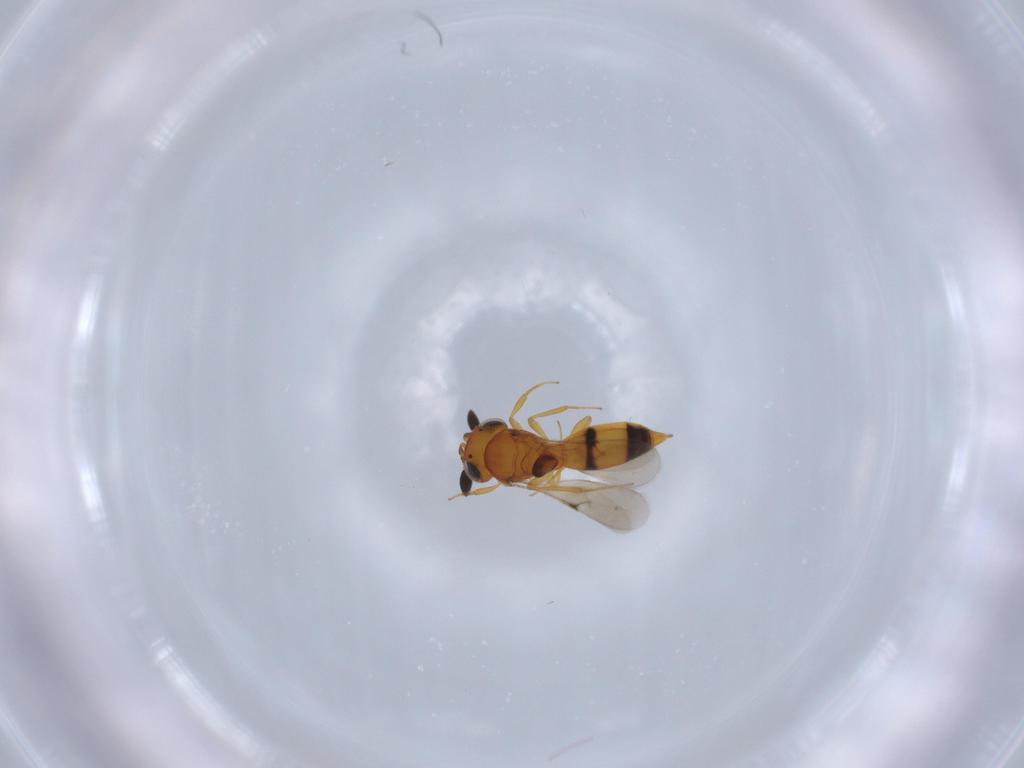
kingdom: Animalia
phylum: Arthropoda
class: Insecta
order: Hymenoptera
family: Scelionidae
